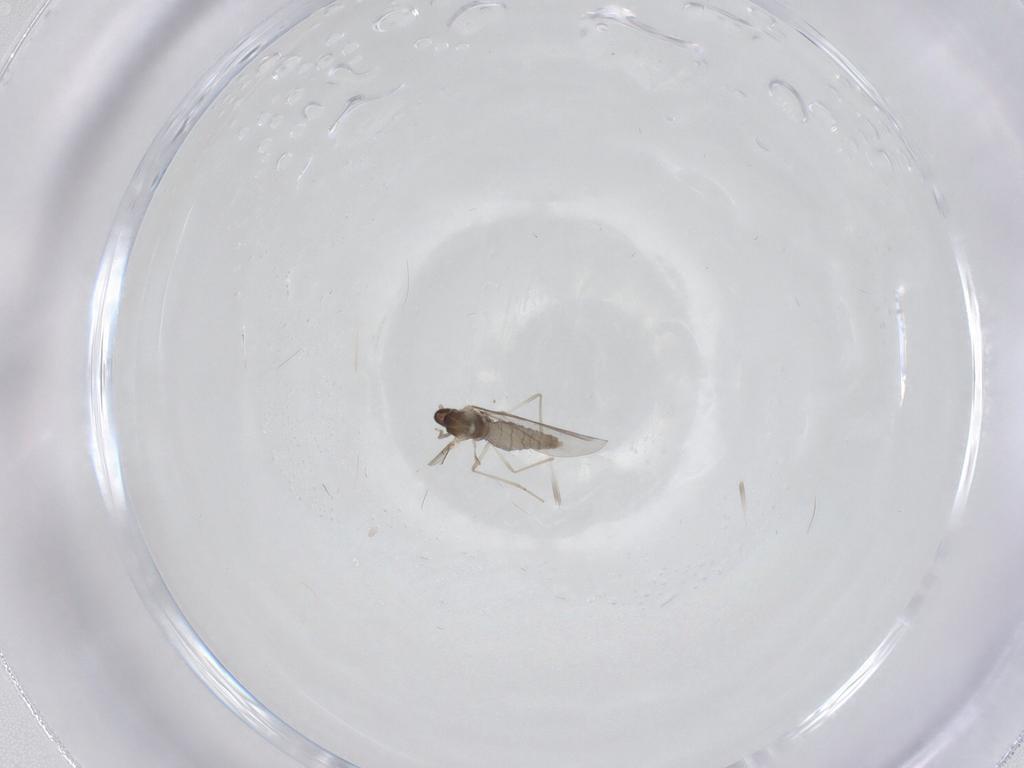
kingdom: Animalia
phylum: Arthropoda
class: Insecta
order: Diptera
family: Cecidomyiidae
